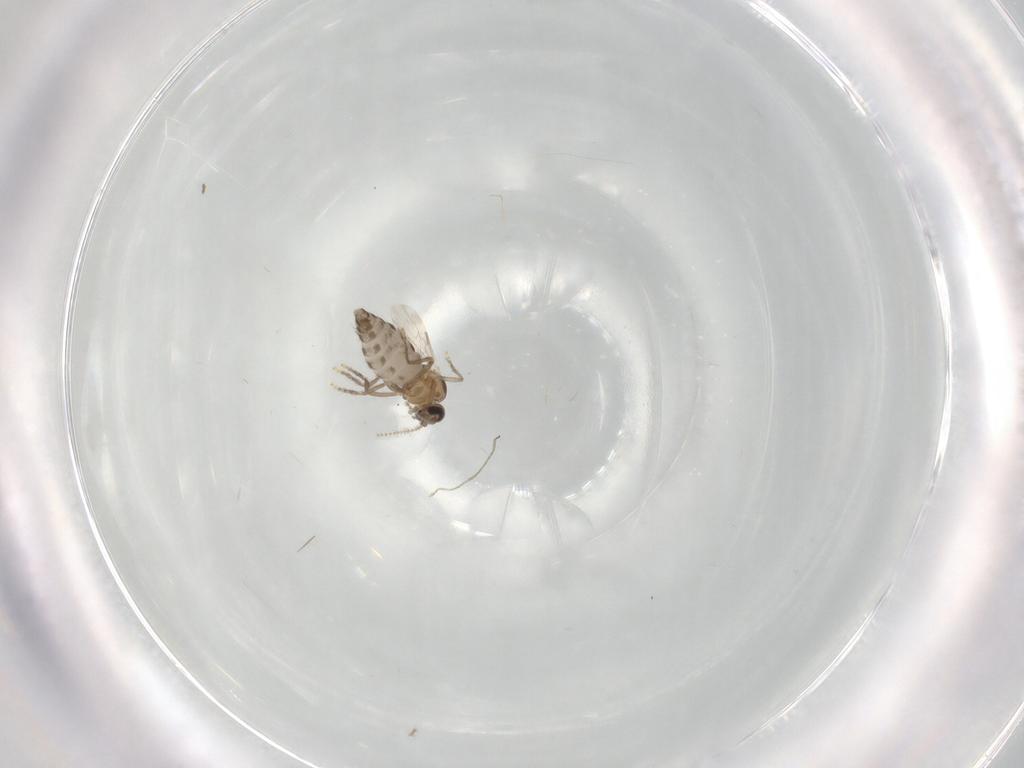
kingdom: Animalia
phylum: Arthropoda
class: Insecta
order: Diptera
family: Ceratopogonidae
